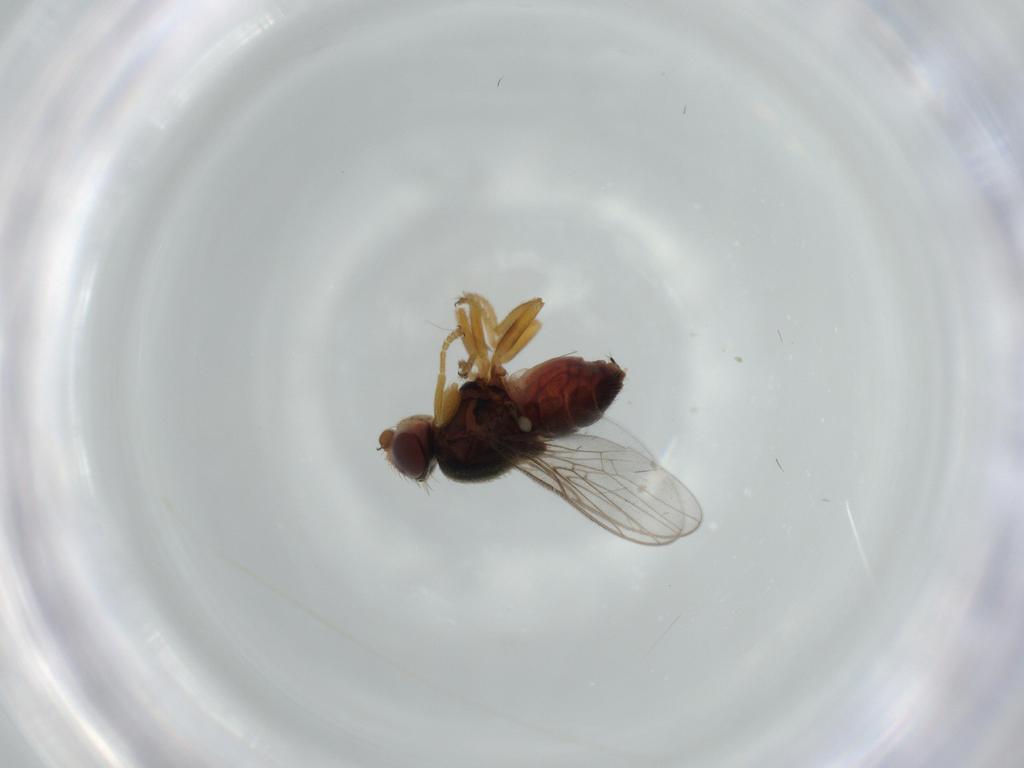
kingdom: Animalia
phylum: Arthropoda
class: Insecta
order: Diptera
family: Chloropidae
